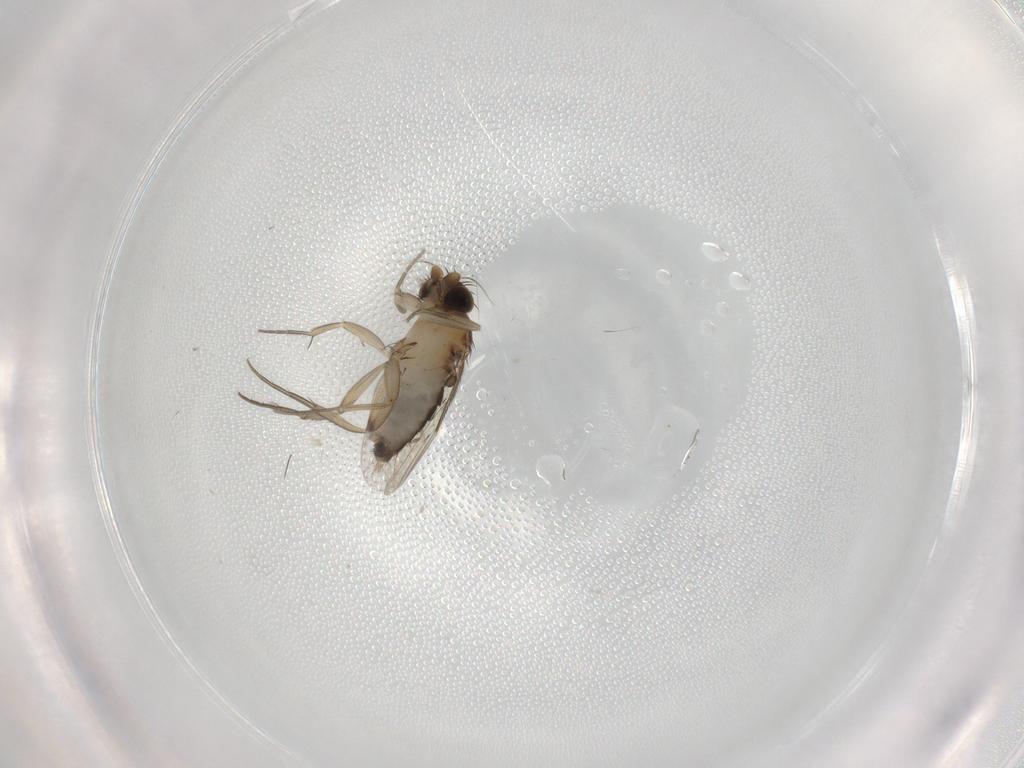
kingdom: Animalia
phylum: Arthropoda
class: Insecta
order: Diptera
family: Phoridae
